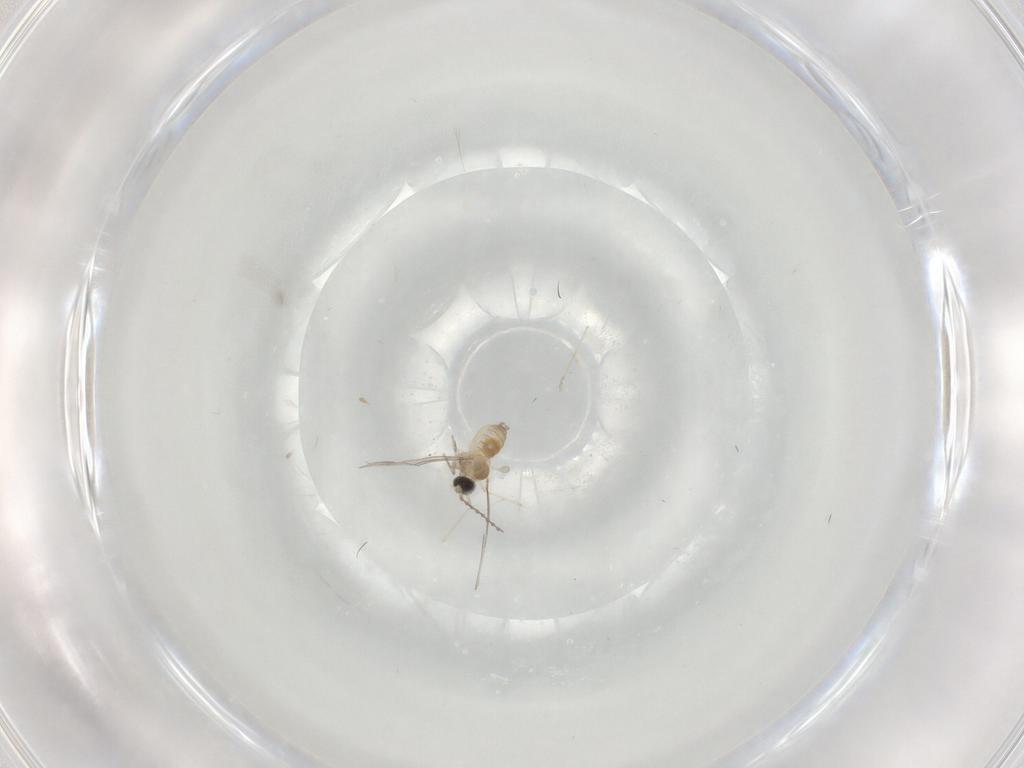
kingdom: Animalia
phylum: Arthropoda
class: Insecta
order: Diptera
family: Cecidomyiidae
